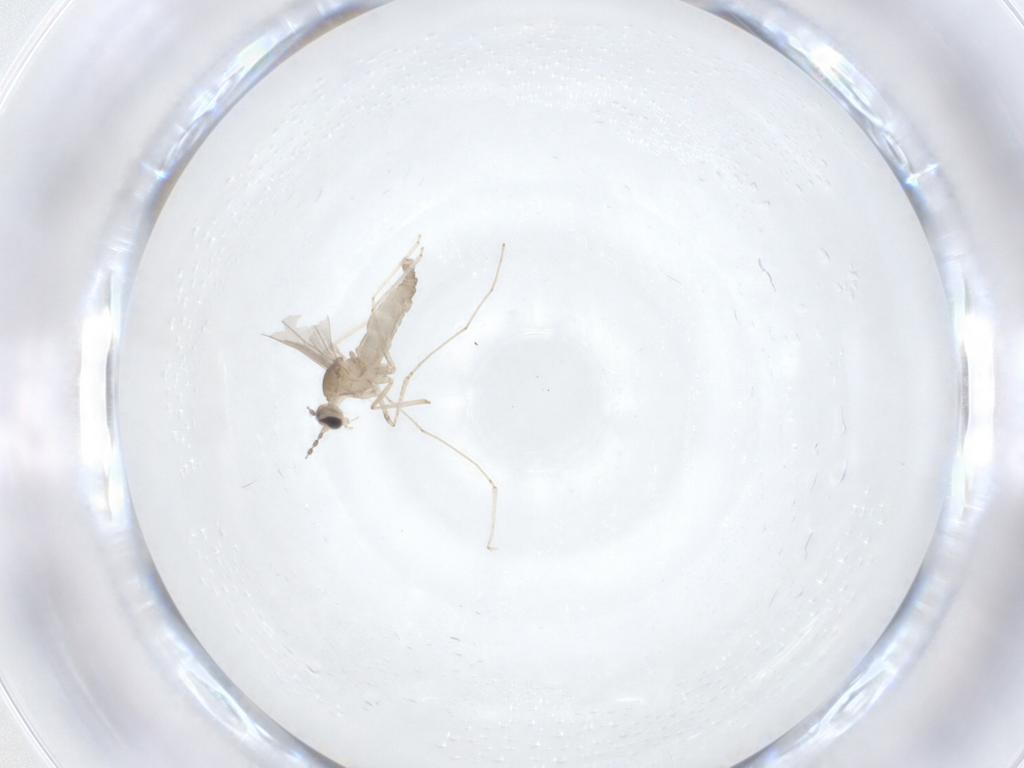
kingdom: Animalia
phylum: Arthropoda
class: Insecta
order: Diptera
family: Cecidomyiidae
